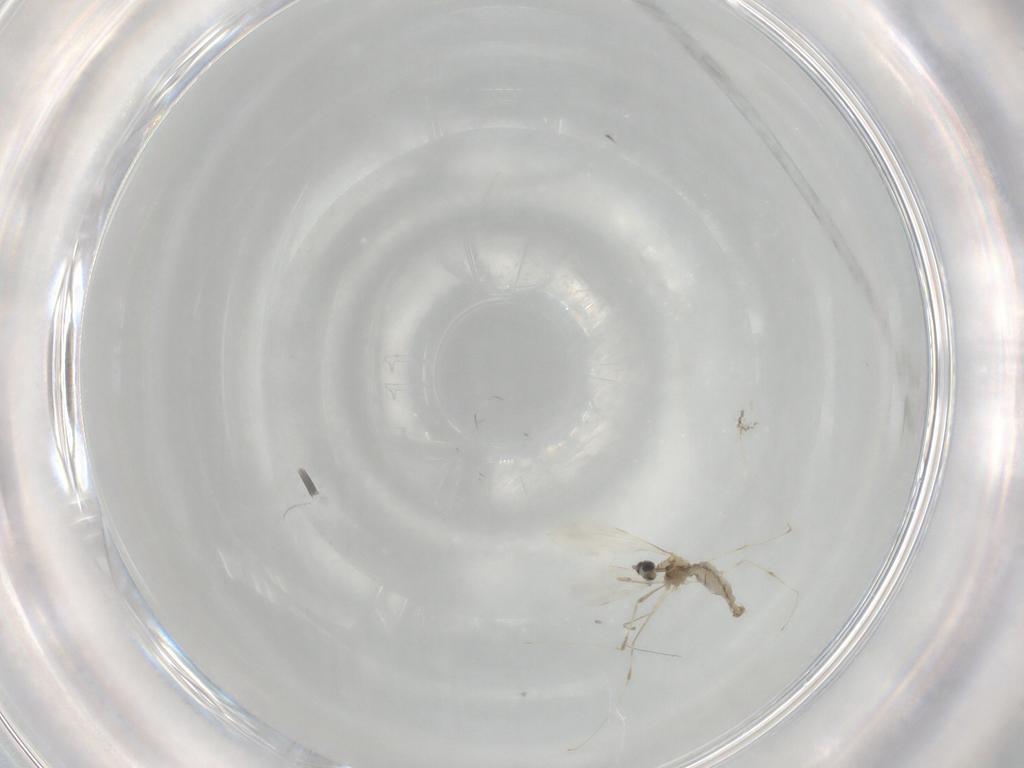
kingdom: Animalia
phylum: Arthropoda
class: Insecta
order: Diptera
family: Cecidomyiidae
